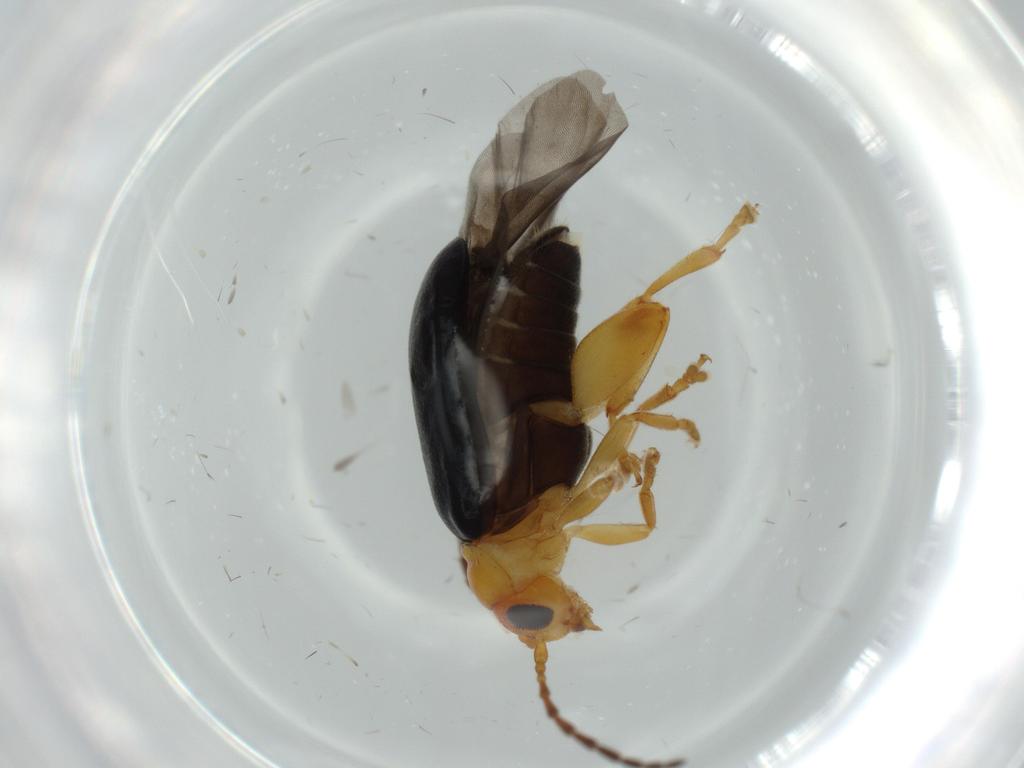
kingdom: Animalia
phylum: Arthropoda
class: Insecta
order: Coleoptera
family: Chrysomelidae
